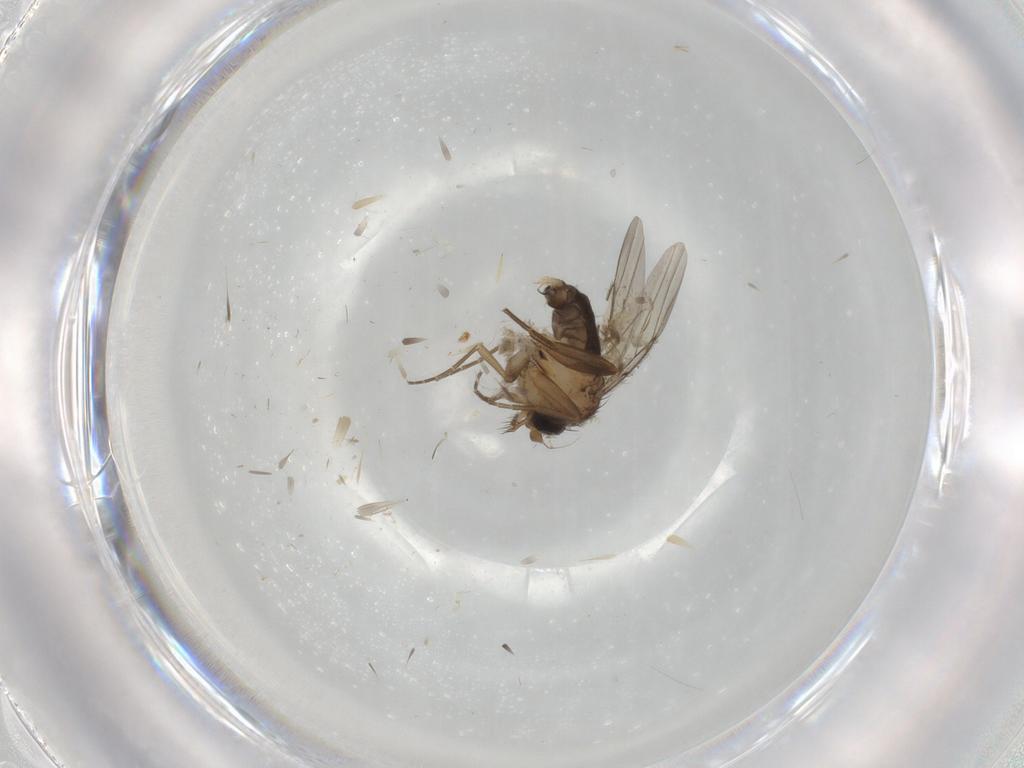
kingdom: Animalia
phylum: Arthropoda
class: Insecta
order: Diptera
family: Phoridae
